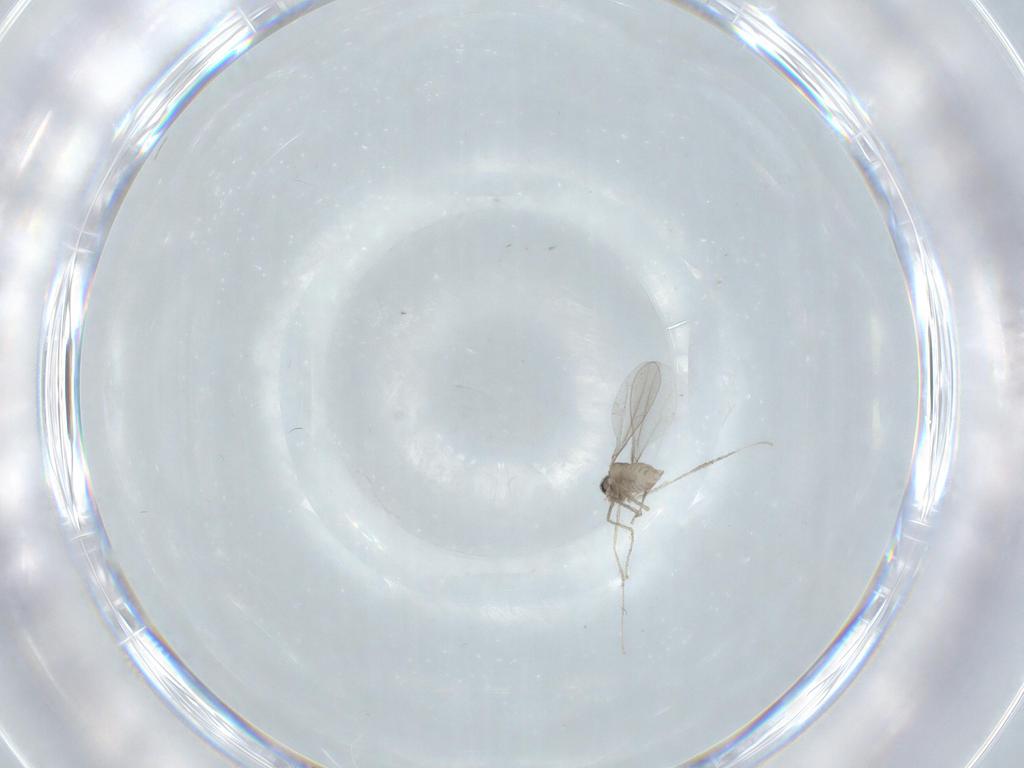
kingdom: Animalia
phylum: Arthropoda
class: Insecta
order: Diptera
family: Cecidomyiidae
